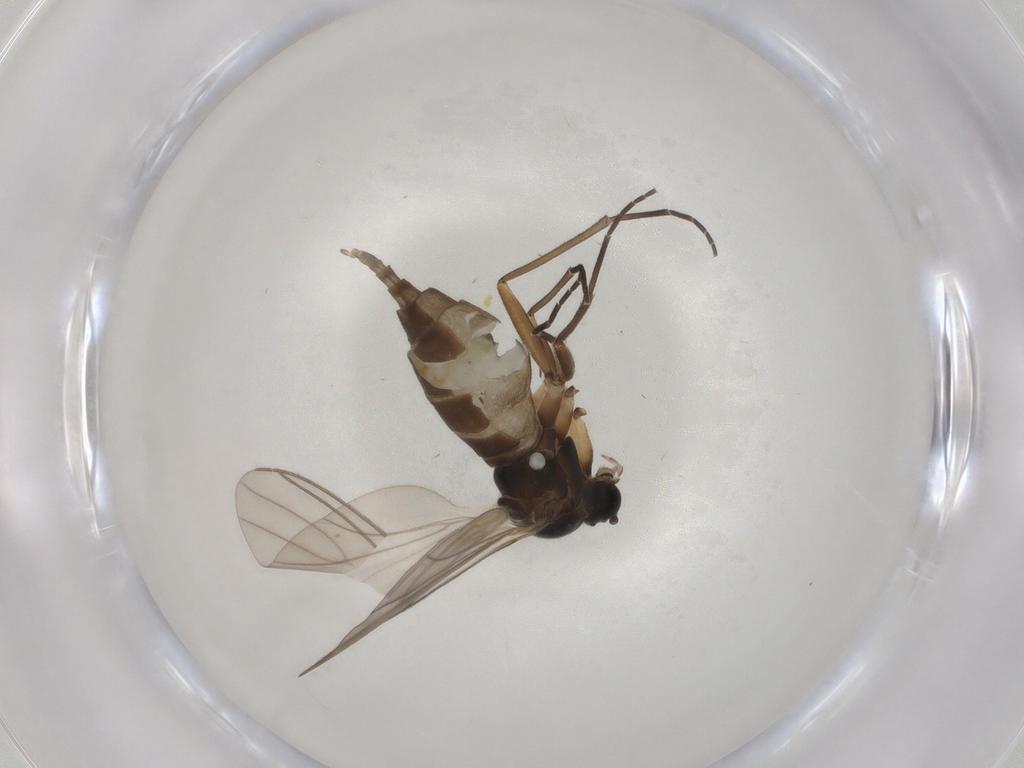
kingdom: Animalia
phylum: Arthropoda
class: Insecta
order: Diptera
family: Sciaridae
